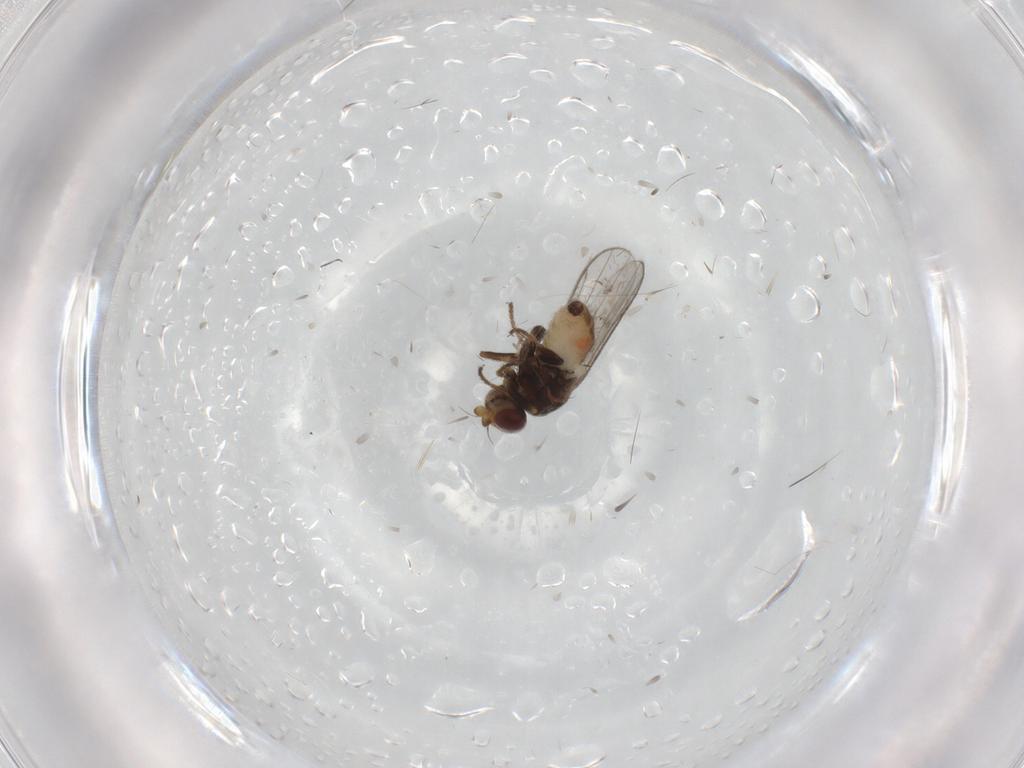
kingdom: Animalia
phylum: Arthropoda
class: Insecta
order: Diptera
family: Chloropidae
